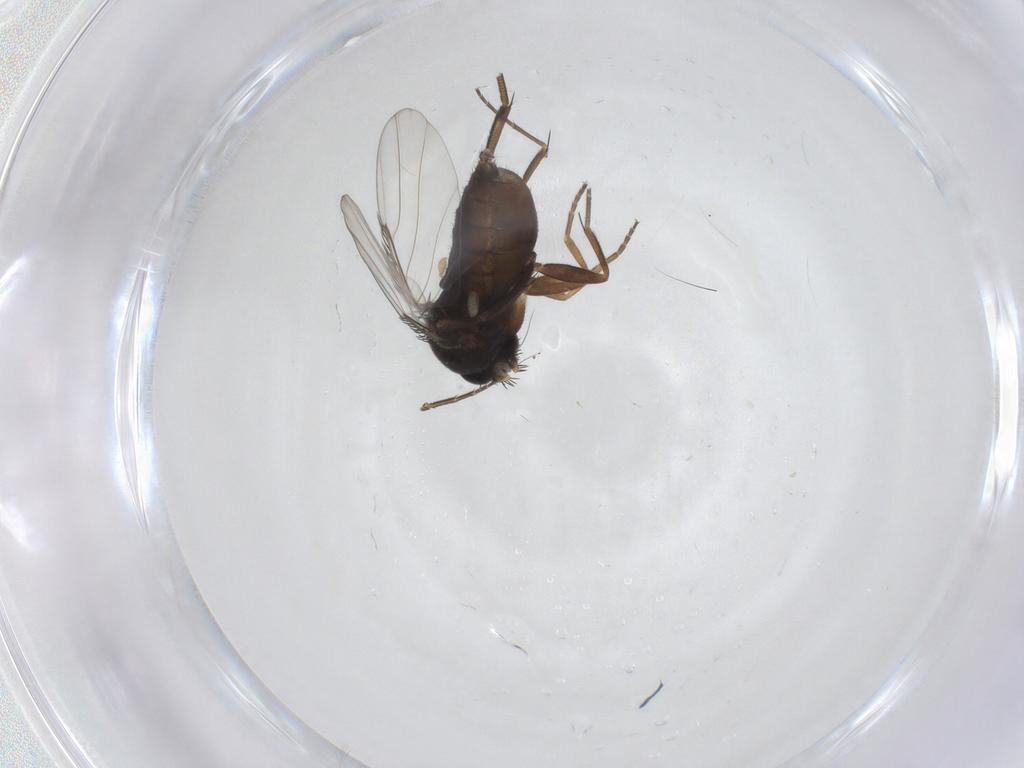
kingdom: Animalia
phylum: Arthropoda
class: Insecta
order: Diptera
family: Phoridae
